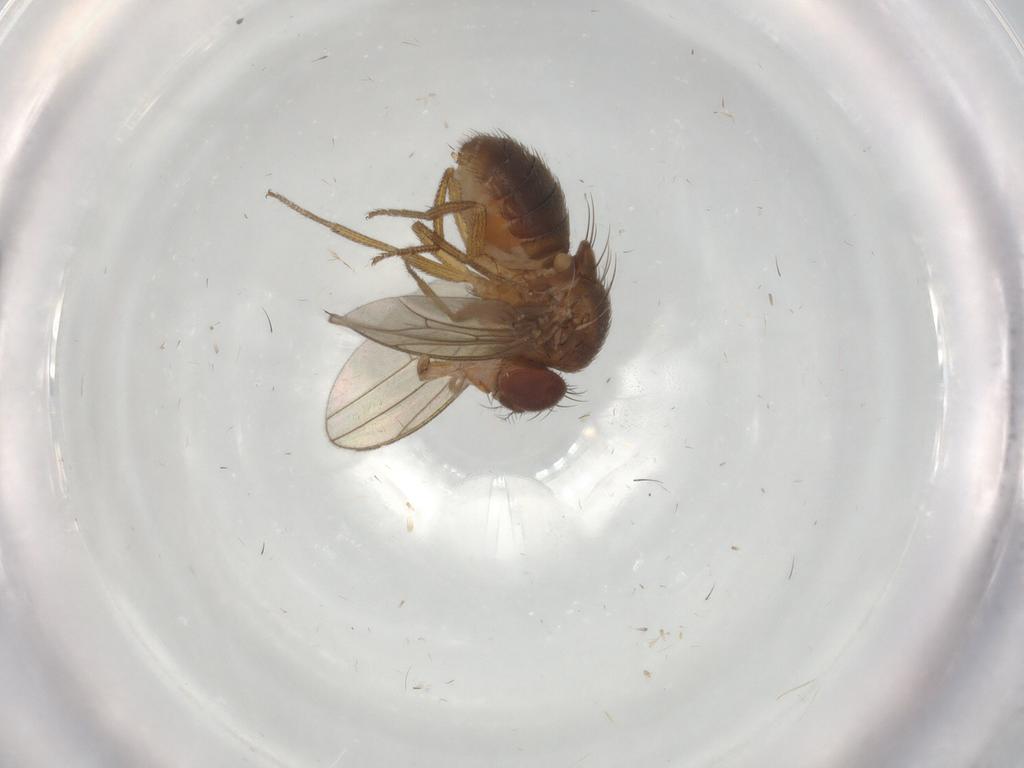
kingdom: Animalia
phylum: Arthropoda
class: Insecta
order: Diptera
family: Drosophilidae
